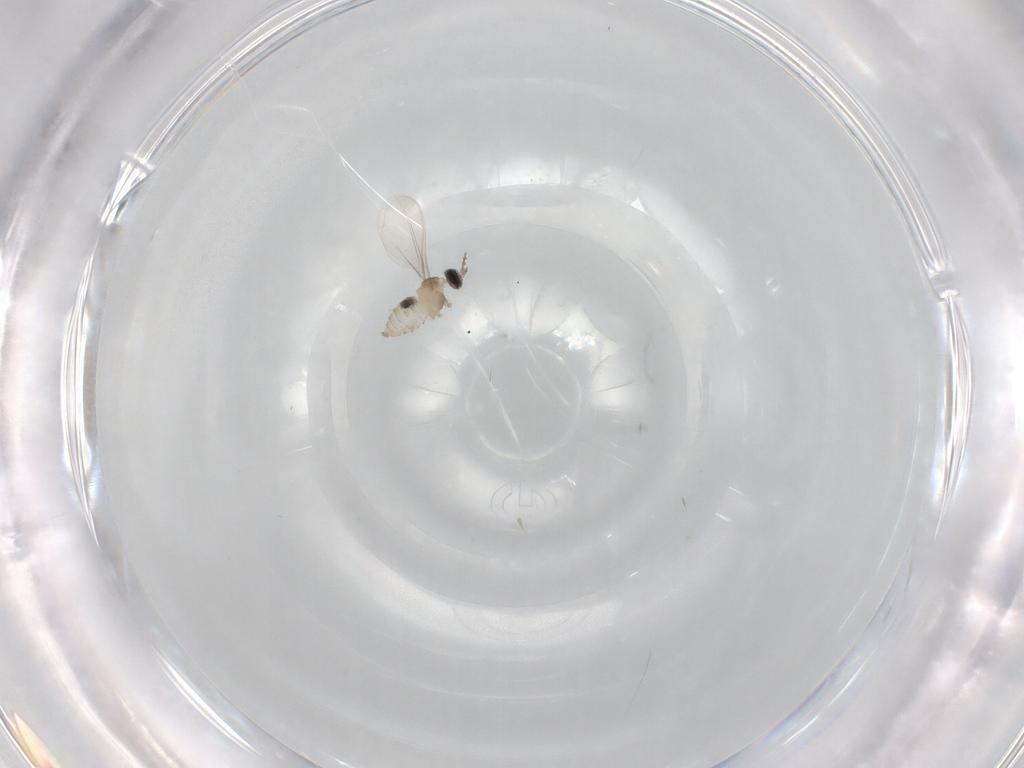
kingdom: Animalia
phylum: Arthropoda
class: Insecta
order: Diptera
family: Cecidomyiidae
